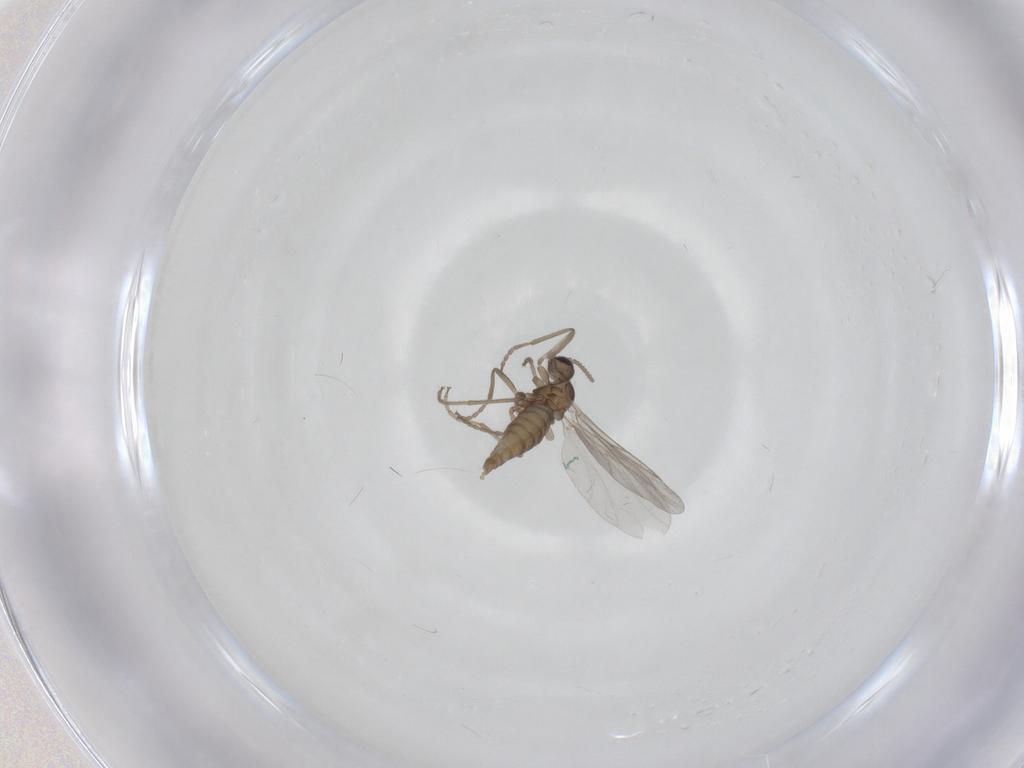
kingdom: Animalia
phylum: Arthropoda
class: Insecta
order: Diptera
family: Cecidomyiidae
